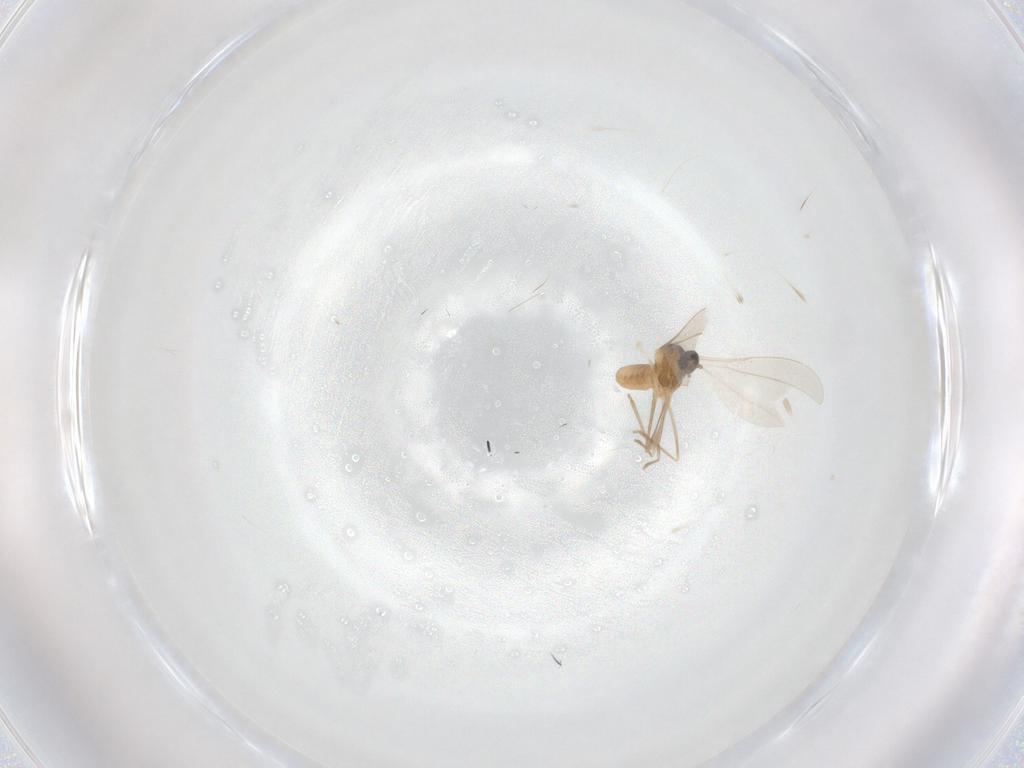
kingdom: Animalia
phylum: Arthropoda
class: Insecta
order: Diptera
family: Cecidomyiidae
